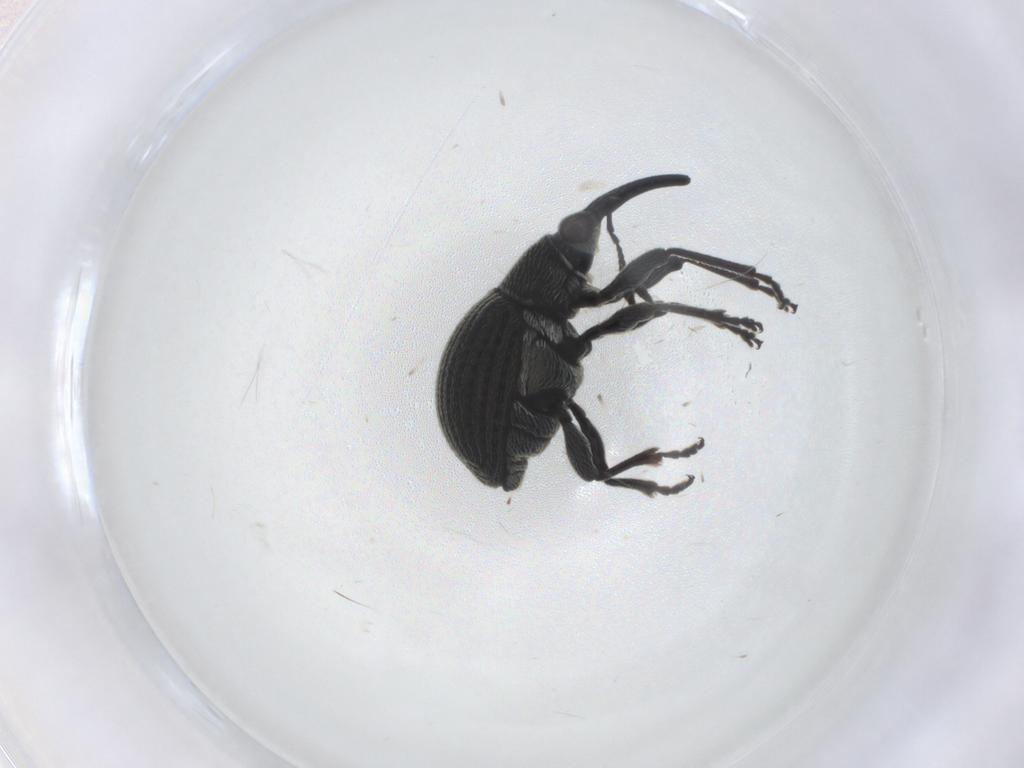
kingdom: Animalia
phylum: Arthropoda
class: Insecta
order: Coleoptera
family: Brentidae
